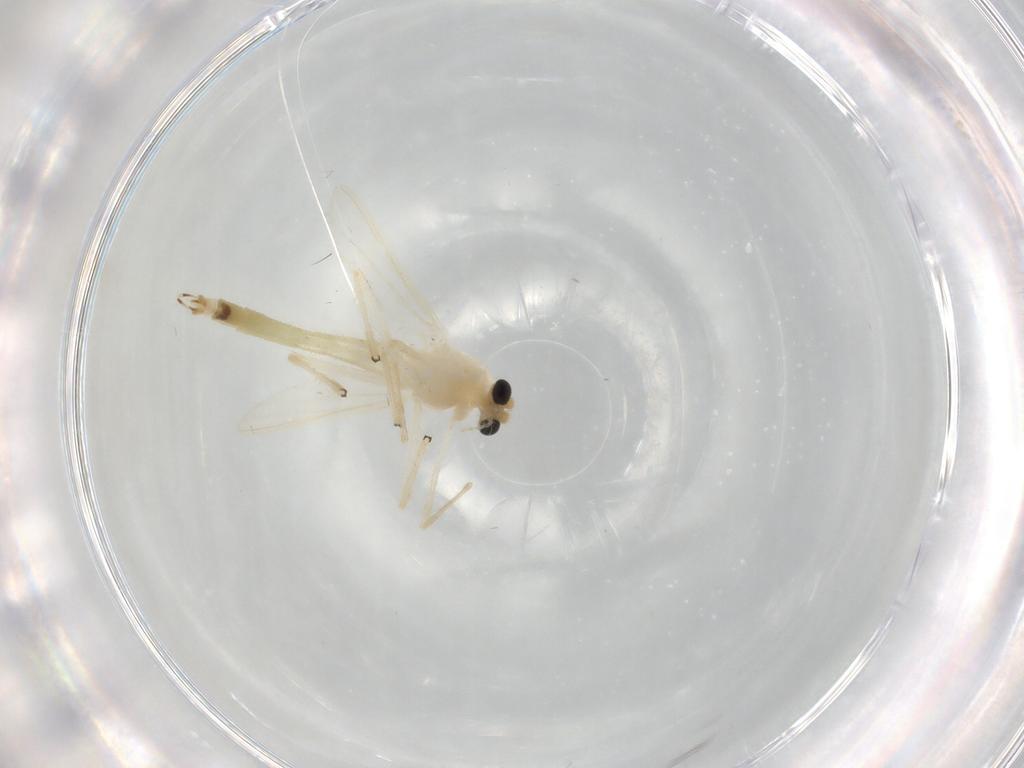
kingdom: Animalia
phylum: Arthropoda
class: Insecta
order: Diptera
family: Chironomidae
